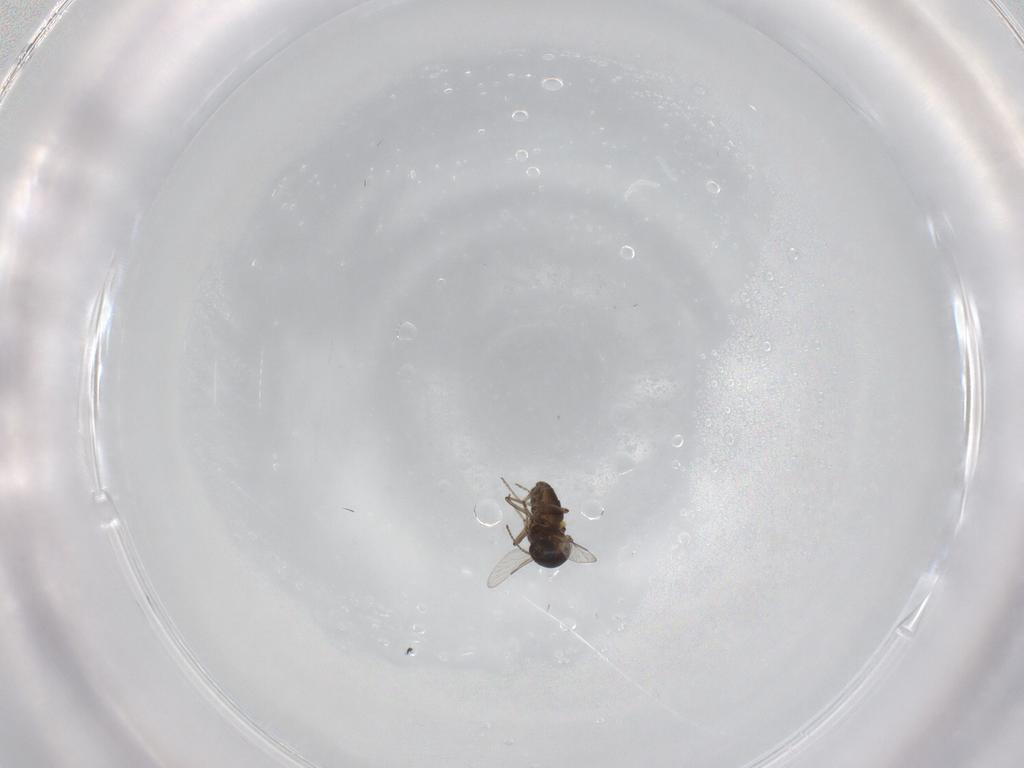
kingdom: Animalia
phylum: Arthropoda
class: Insecta
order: Diptera
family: Ceratopogonidae
